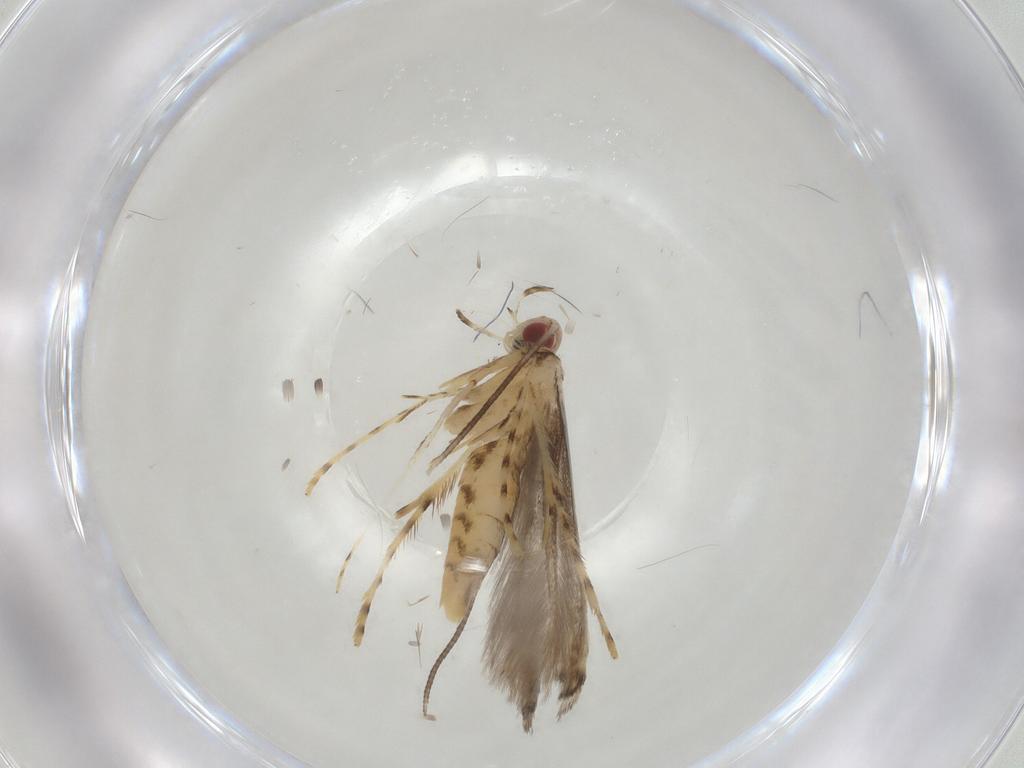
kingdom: Animalia
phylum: Arthropoda
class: Insecta
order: Lepidoptera
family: Gracillariidae
